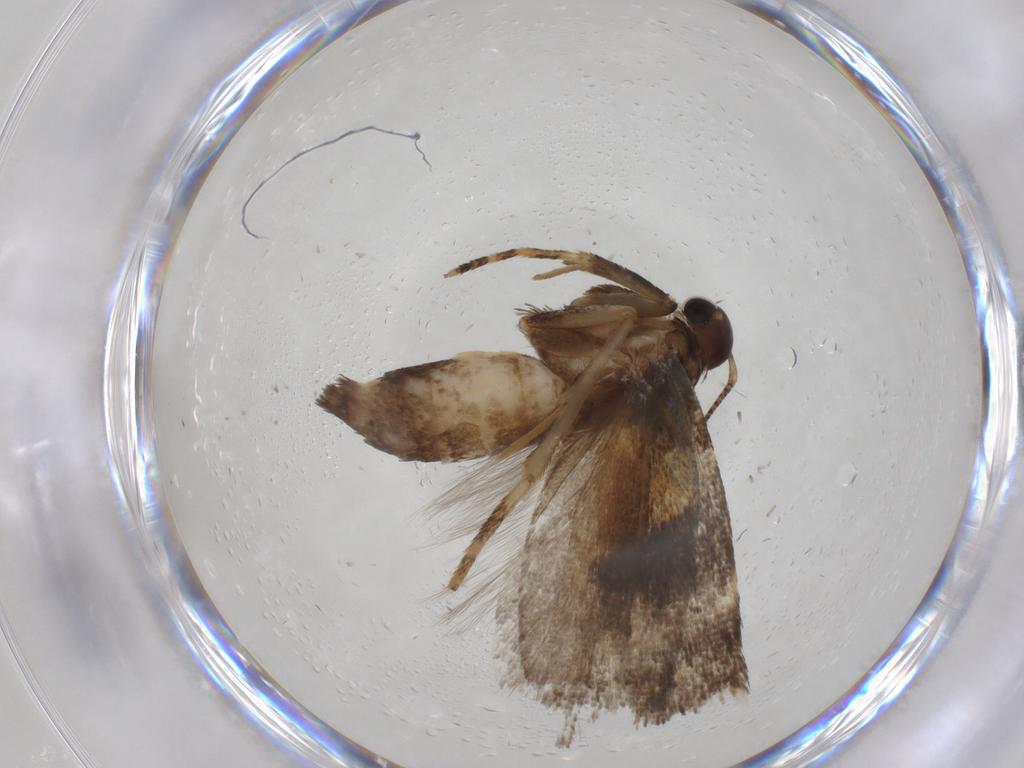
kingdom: Animalia
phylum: Arthropoda
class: Insecta
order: Lepidoptera
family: Gelechiidae
